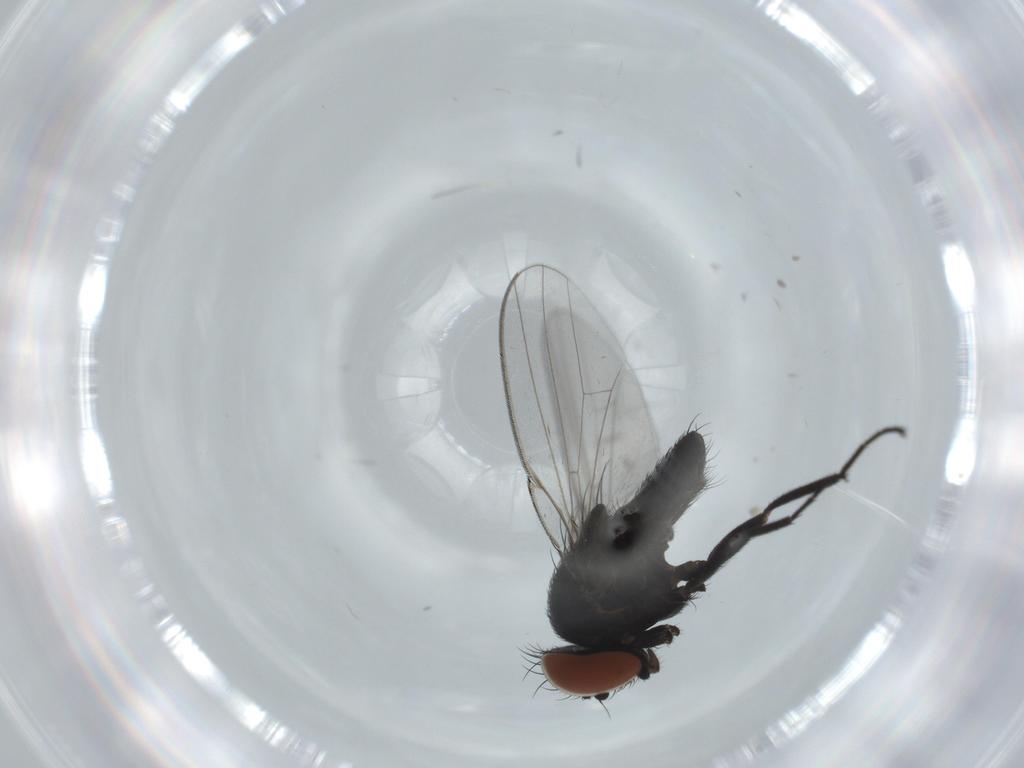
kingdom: Animalia
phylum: Arthropoda
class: Insecta
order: Diptera
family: Milichiidae
